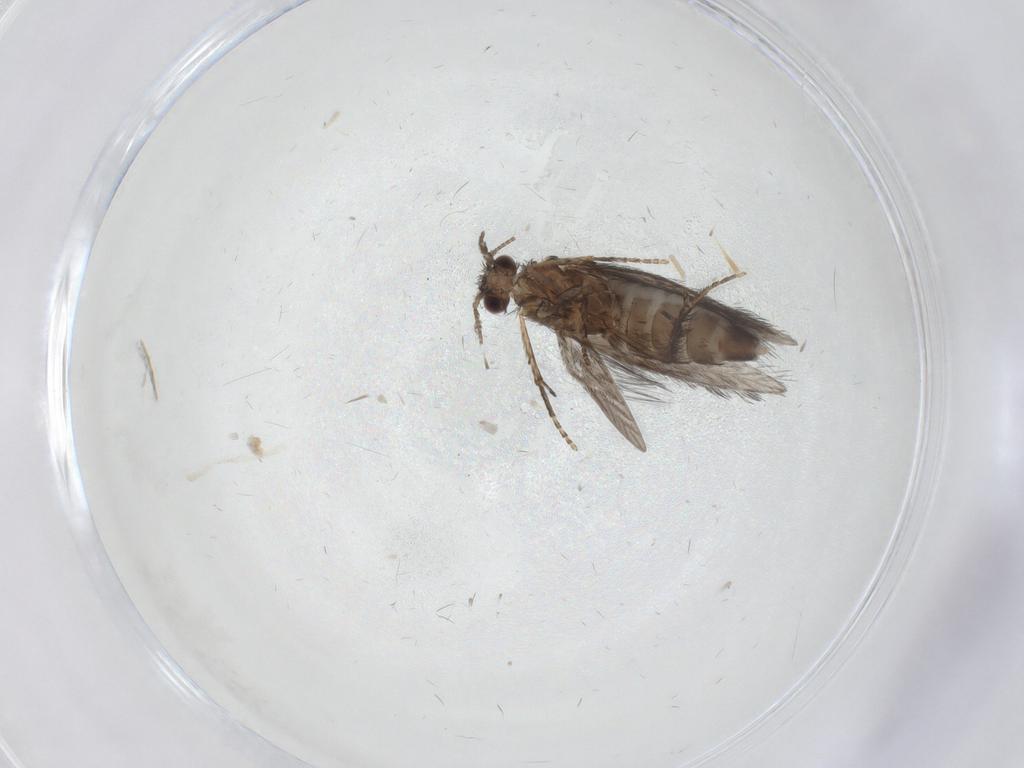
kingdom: Animalia
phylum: Arthropoda
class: Insecta
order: Trichoptera
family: Hydroptilidae
